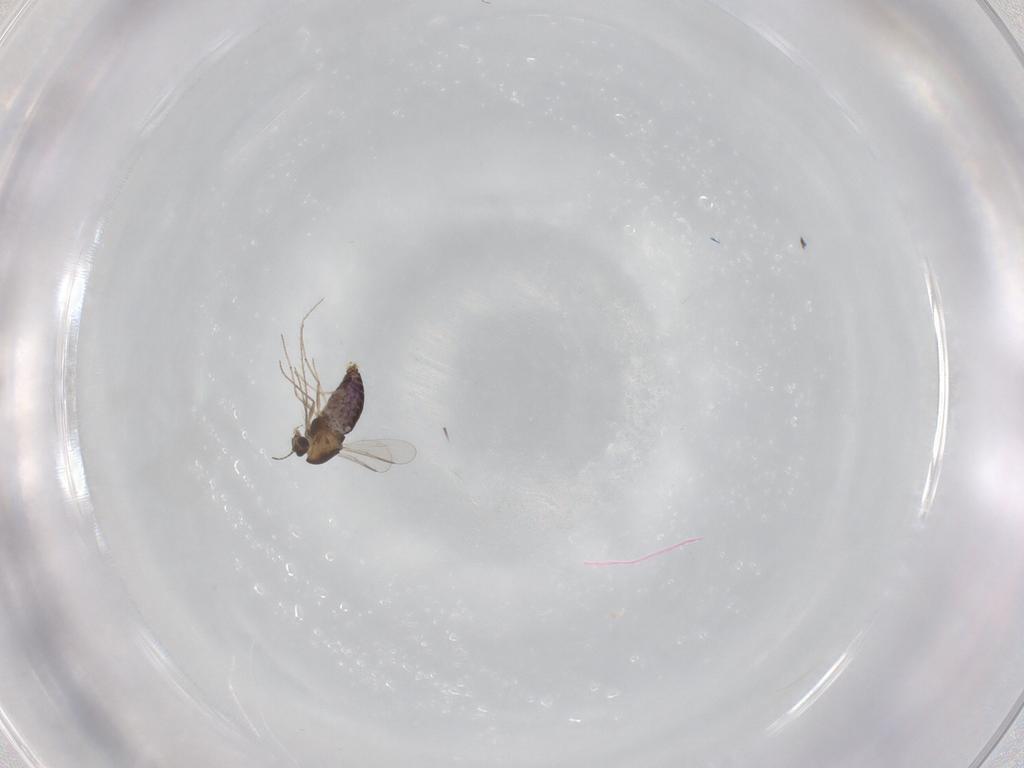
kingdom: Animalia
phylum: Arthropoda
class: Insecta
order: Diptera
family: Chironomidae
